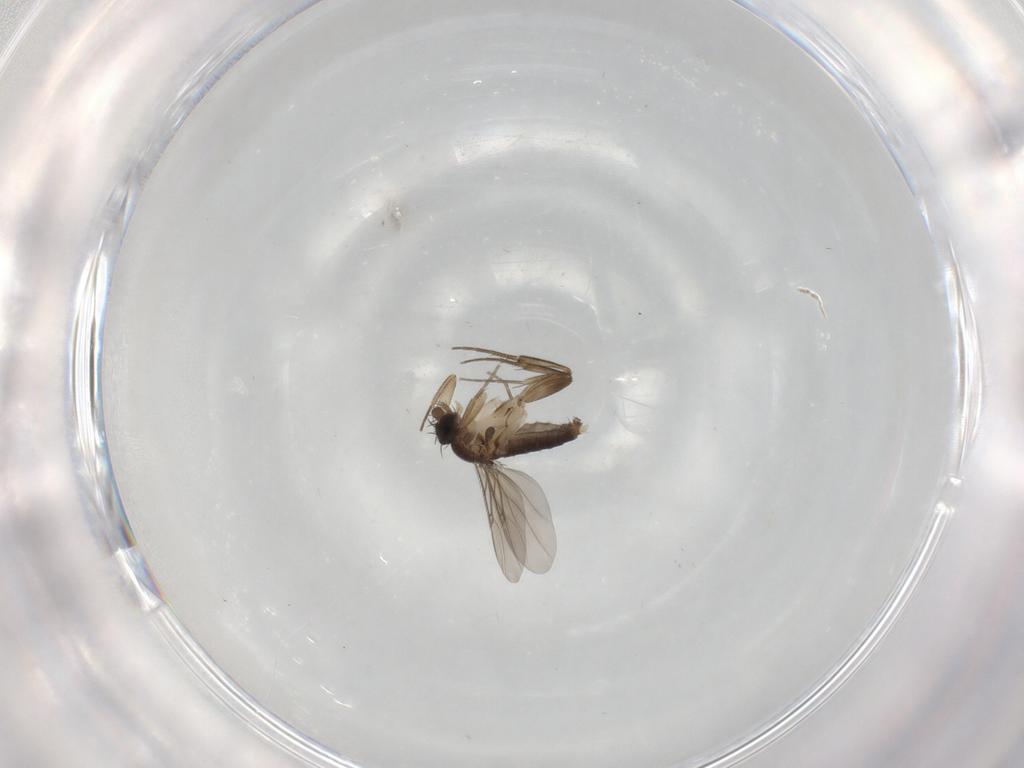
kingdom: Animalia
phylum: Arthropoda
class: Insecta
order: Diptera
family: Phoridae
